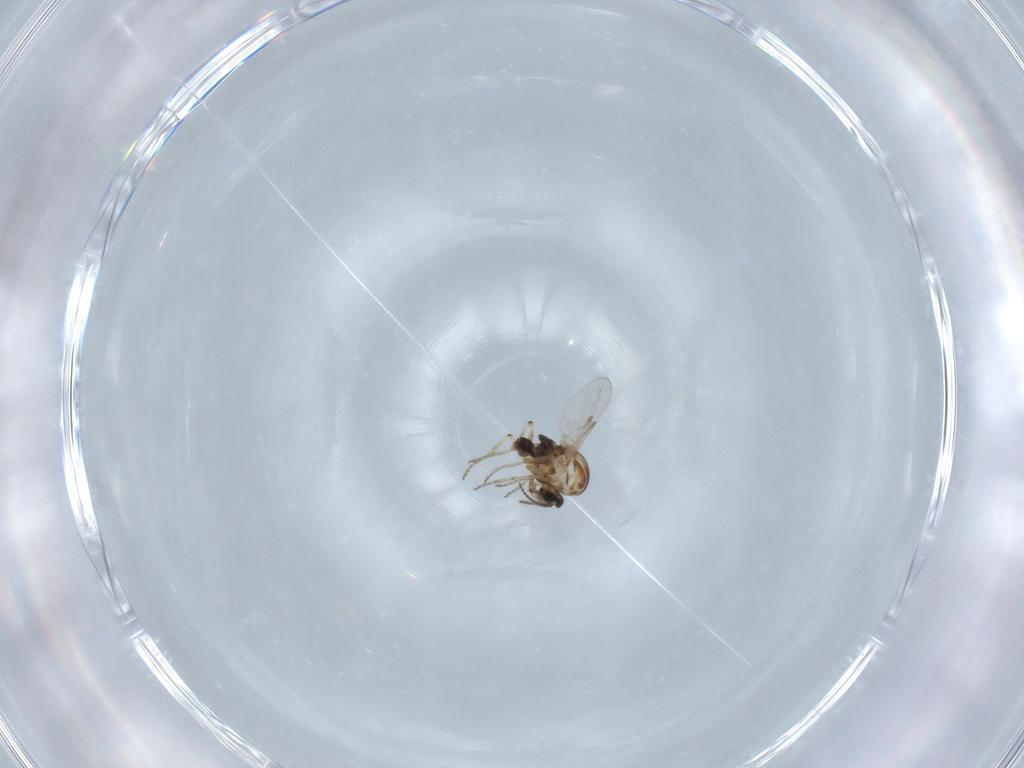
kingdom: Animalia
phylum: Arthropoda
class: Insecta
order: Diptera
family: Ceratopogonidae
